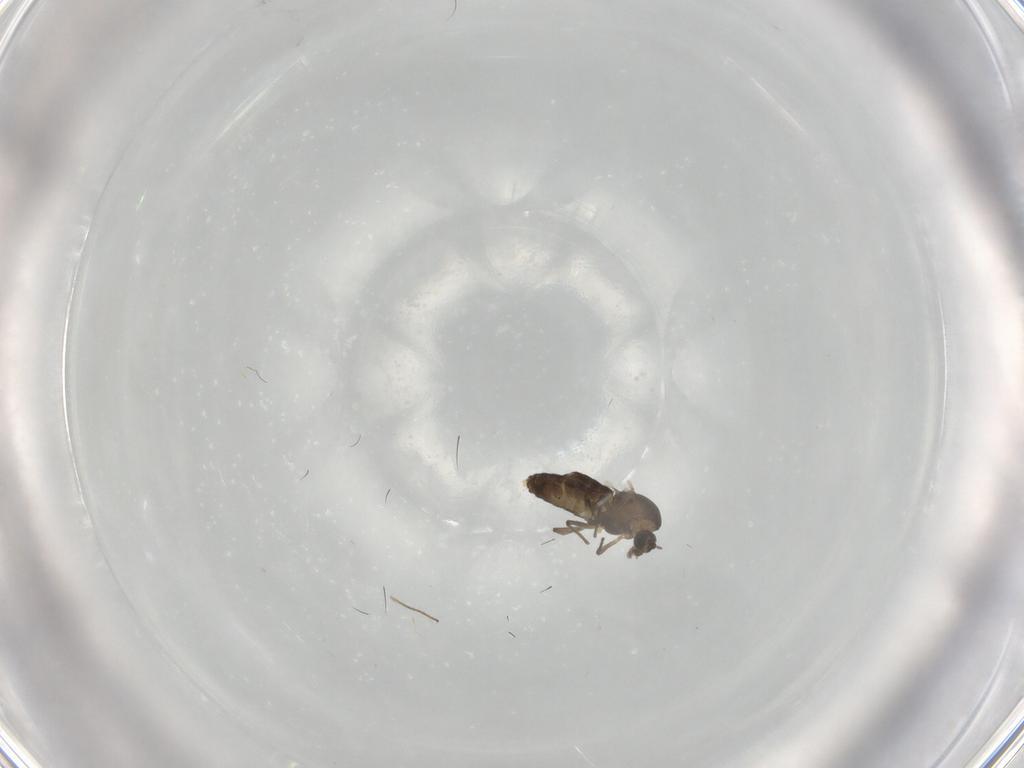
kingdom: Animalia
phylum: Arthropoda
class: Insecta
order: Diptera
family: Chironomidae
